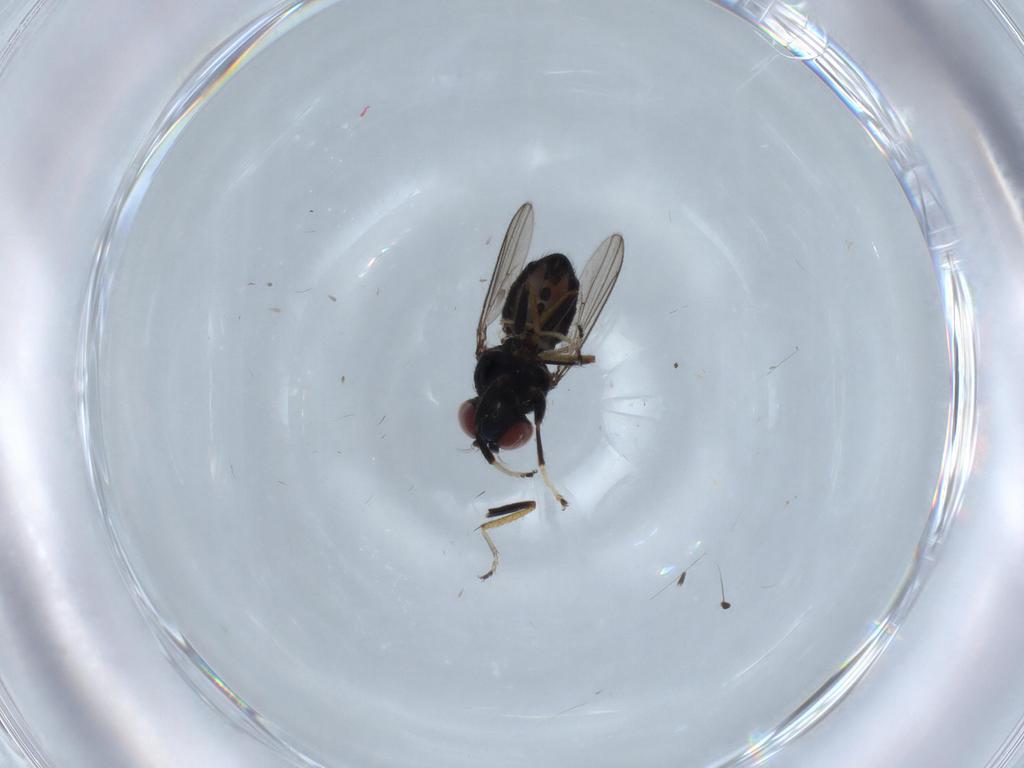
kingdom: Animalia
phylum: Arthropoda
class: Insecta
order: Diptera
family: Ephydridae
